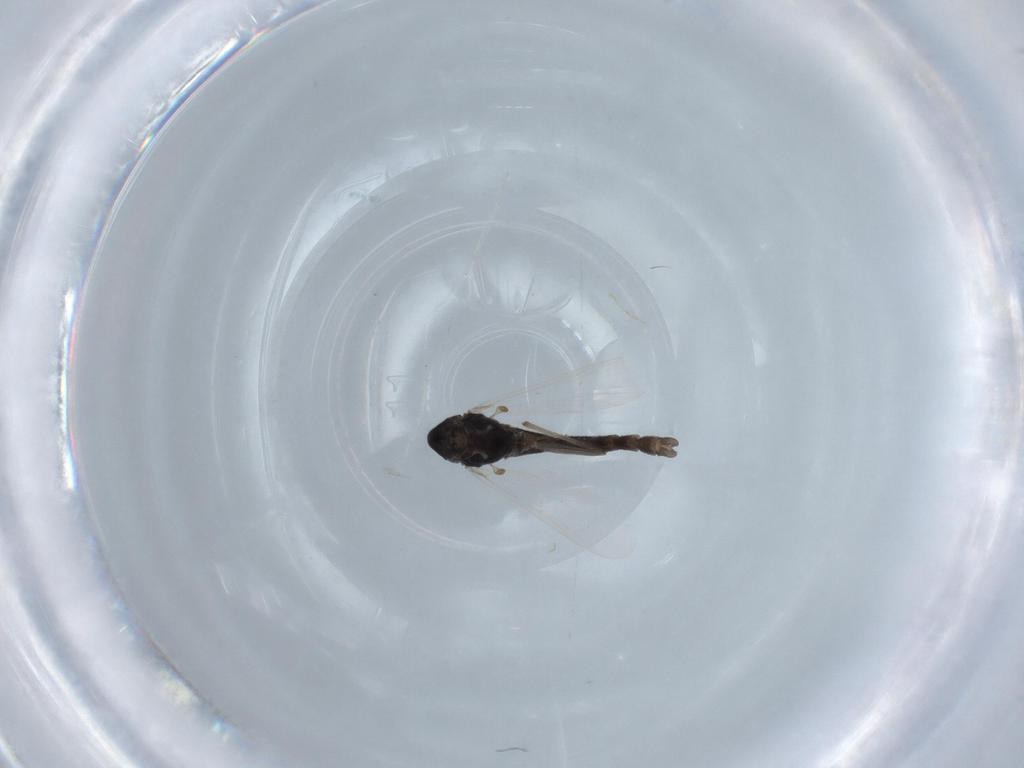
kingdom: Animalia
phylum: Arthropoda
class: Insecta
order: Diptera
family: Chironomidae
